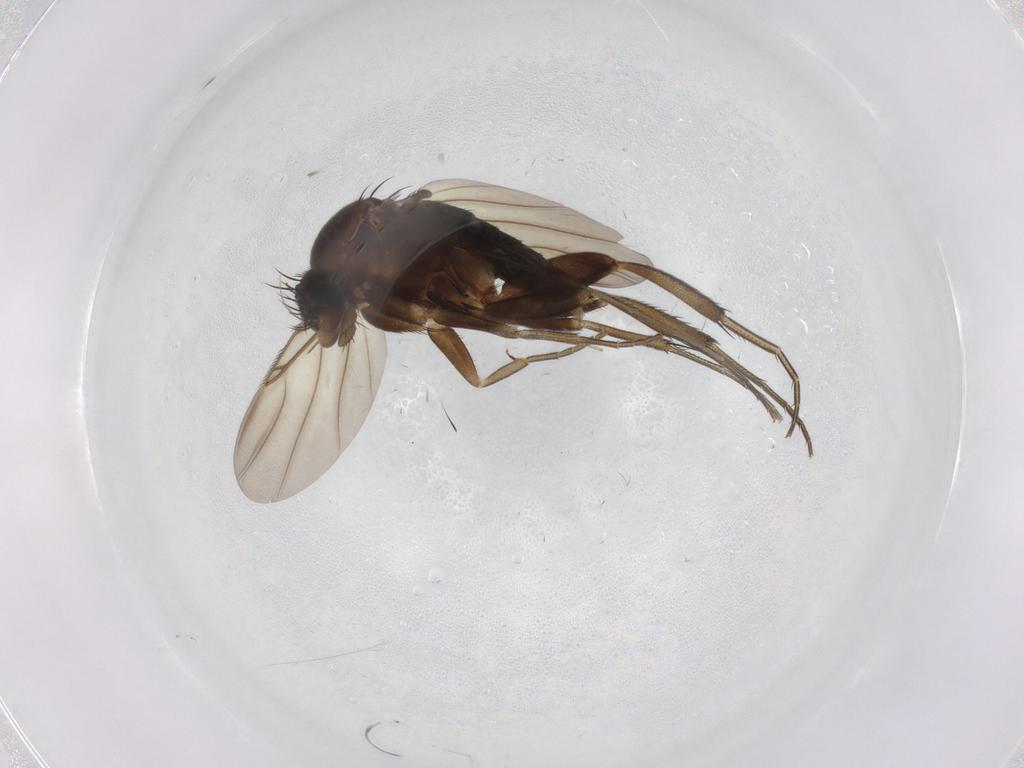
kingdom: Animalia
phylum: Arthropoda
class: Insecta
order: Diptera
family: Phoridae
